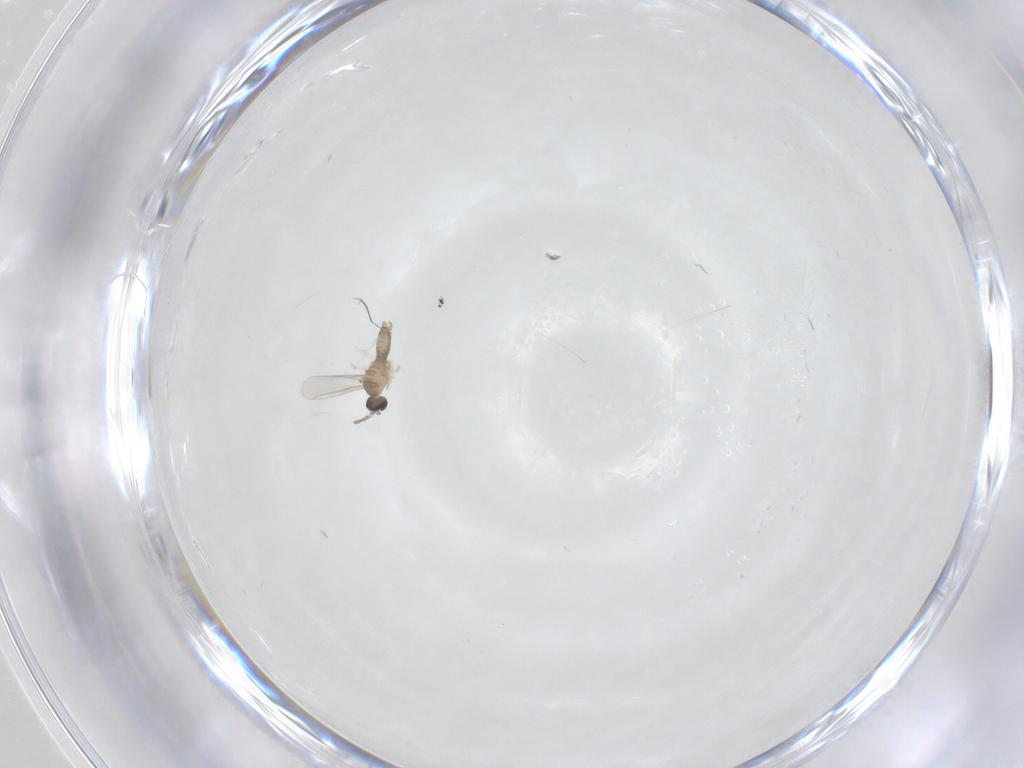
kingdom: Animalia
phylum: Arthropoda
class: Insecta
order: Diptera
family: Cecidomyiidae
